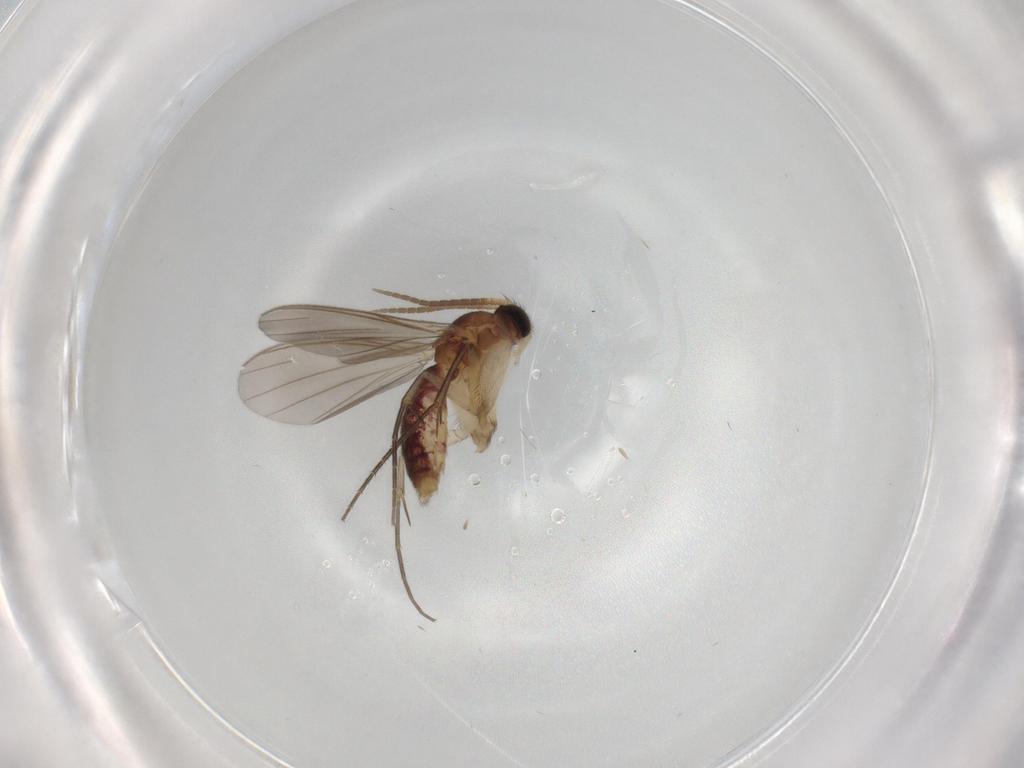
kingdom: Animalia
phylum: Arthropoda
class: Insecta
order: Diptera
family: Mycetophilidae
